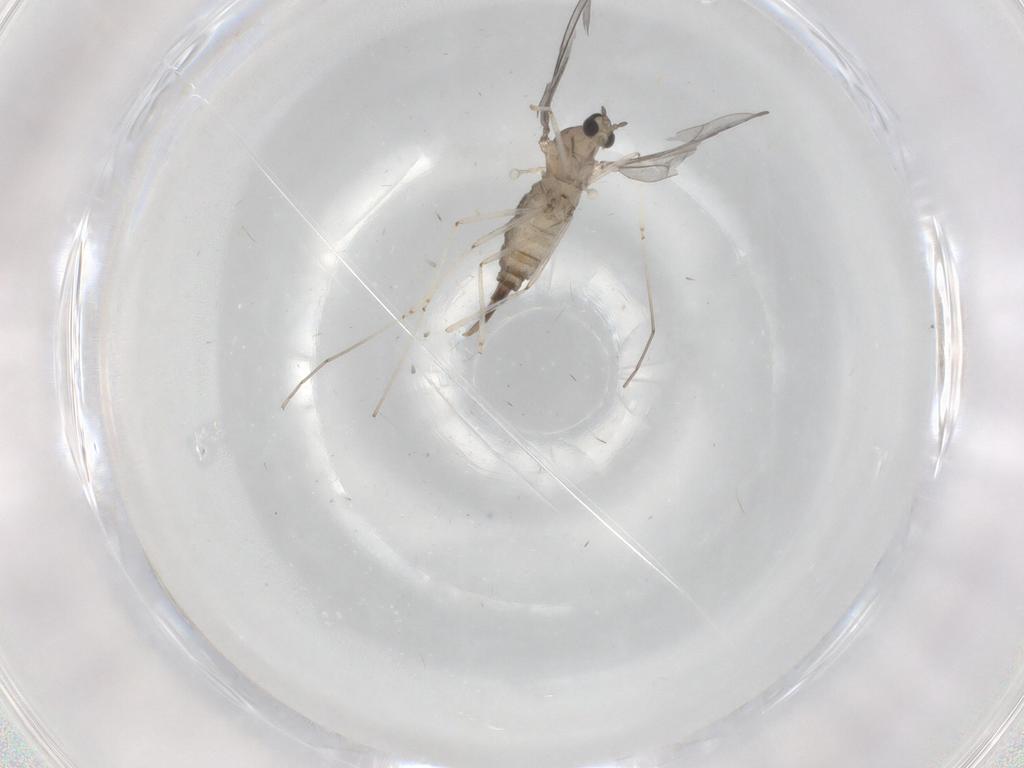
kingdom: Animalia
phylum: Arthropoda
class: Insecta
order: Diptera
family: Cecidomyiidae
